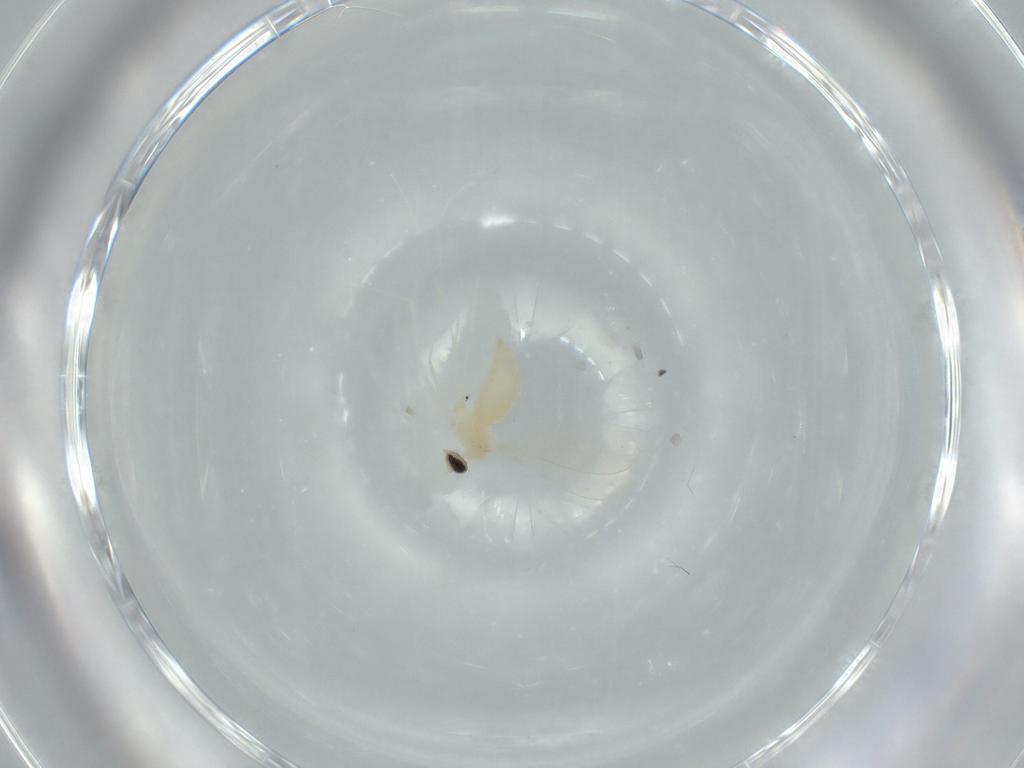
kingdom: Animalia
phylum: Arthropoda
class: Insecta
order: Diptera
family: Cecidomyiidae
